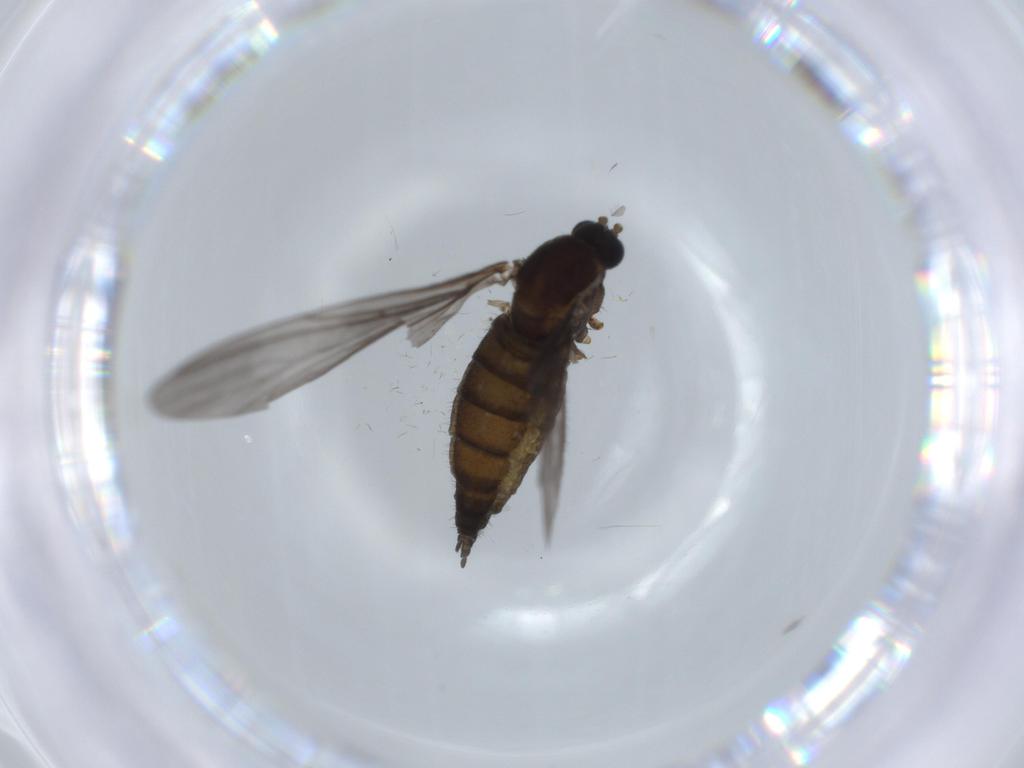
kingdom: Animalia
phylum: Arthropoda
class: Insecta
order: Diptera
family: Sciaridae
